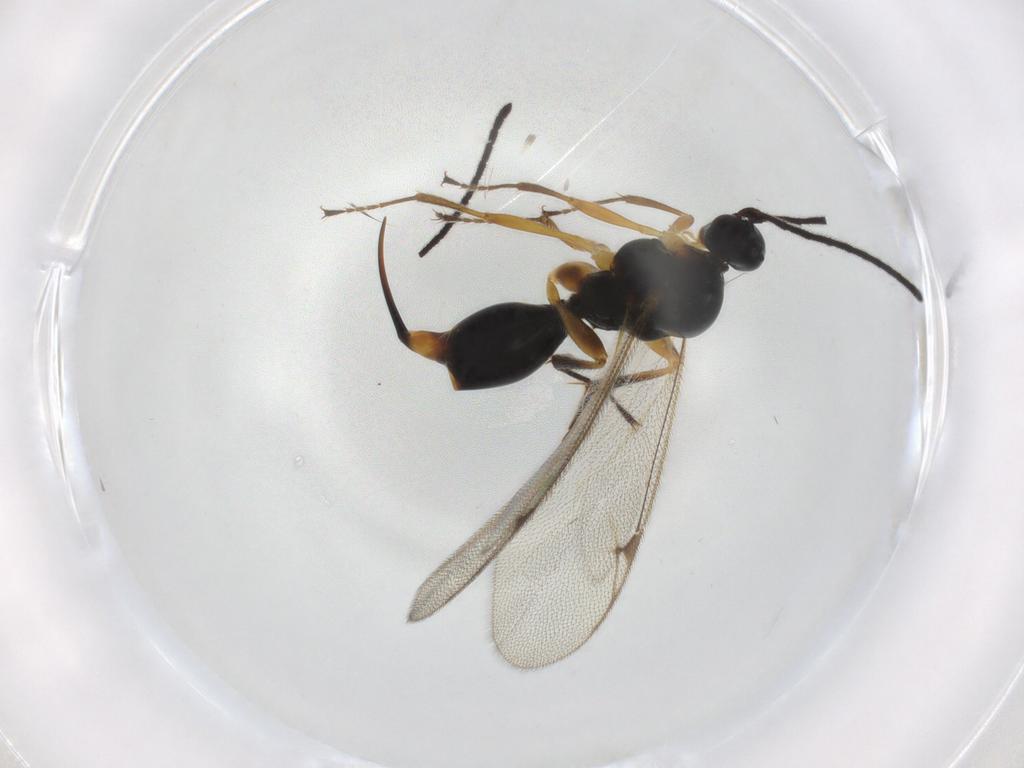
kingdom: Animalia
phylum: Arthropoda
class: Insecta
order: Hymenoptera
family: Proctotrupidae
